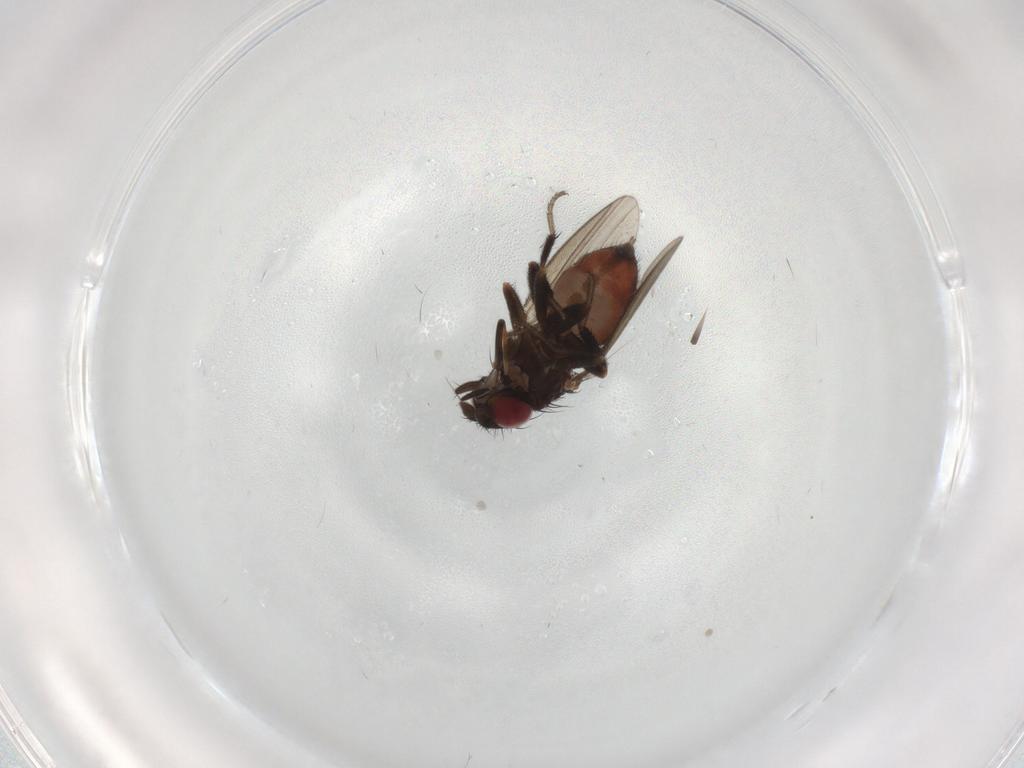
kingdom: Animalia
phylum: Arthropoda
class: Insecta
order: Diptera
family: Milichiidae
